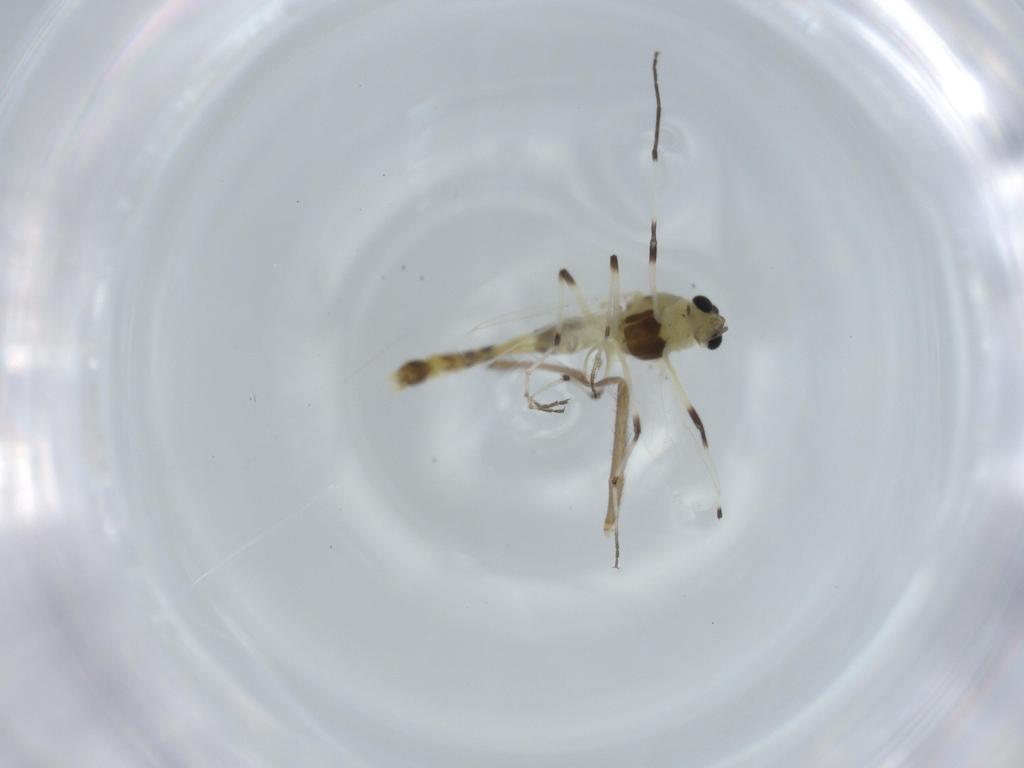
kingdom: Animalia
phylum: Arthropoda
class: Insecta
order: Diptera
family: Chironomidae
